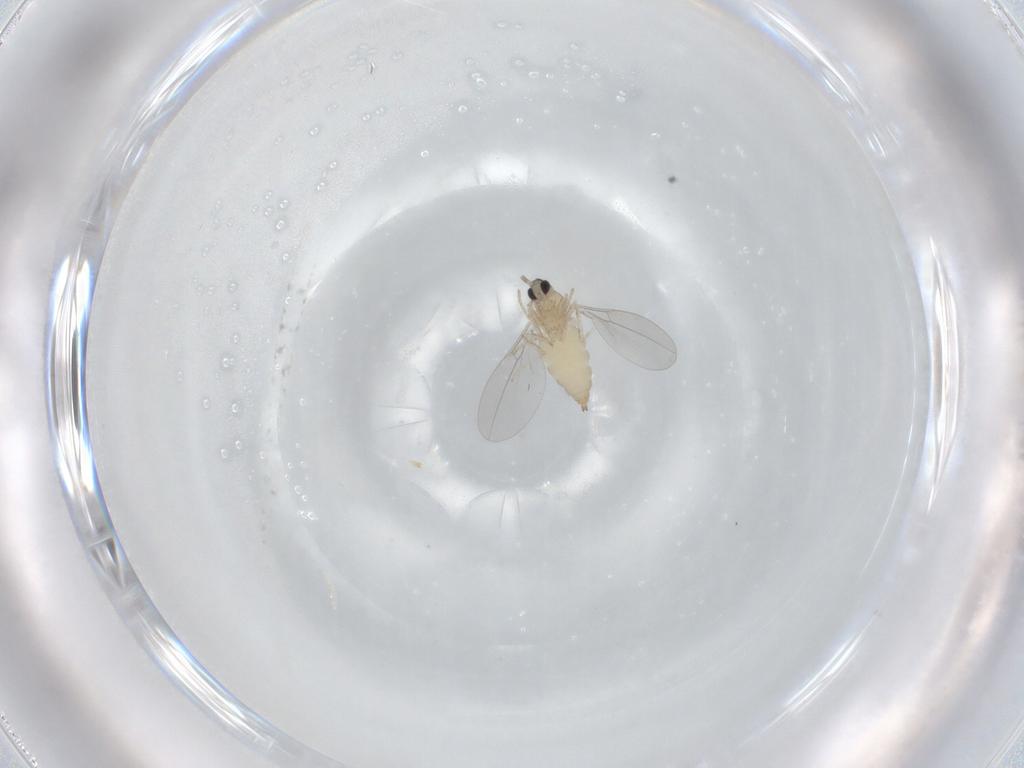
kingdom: Animalia
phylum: Arthropoda
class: Insecta
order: Diptera
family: Cecidomyiidae
